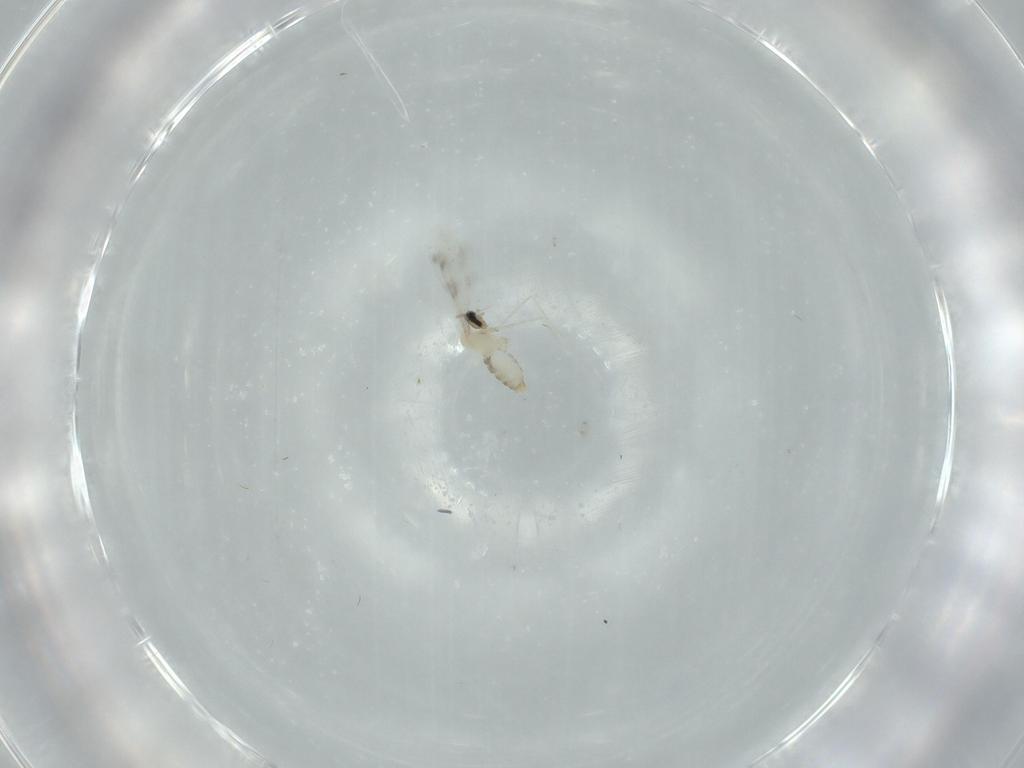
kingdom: Animalia
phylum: Arthropoda
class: Insecta
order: Diptera
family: Cecidomyiidae
